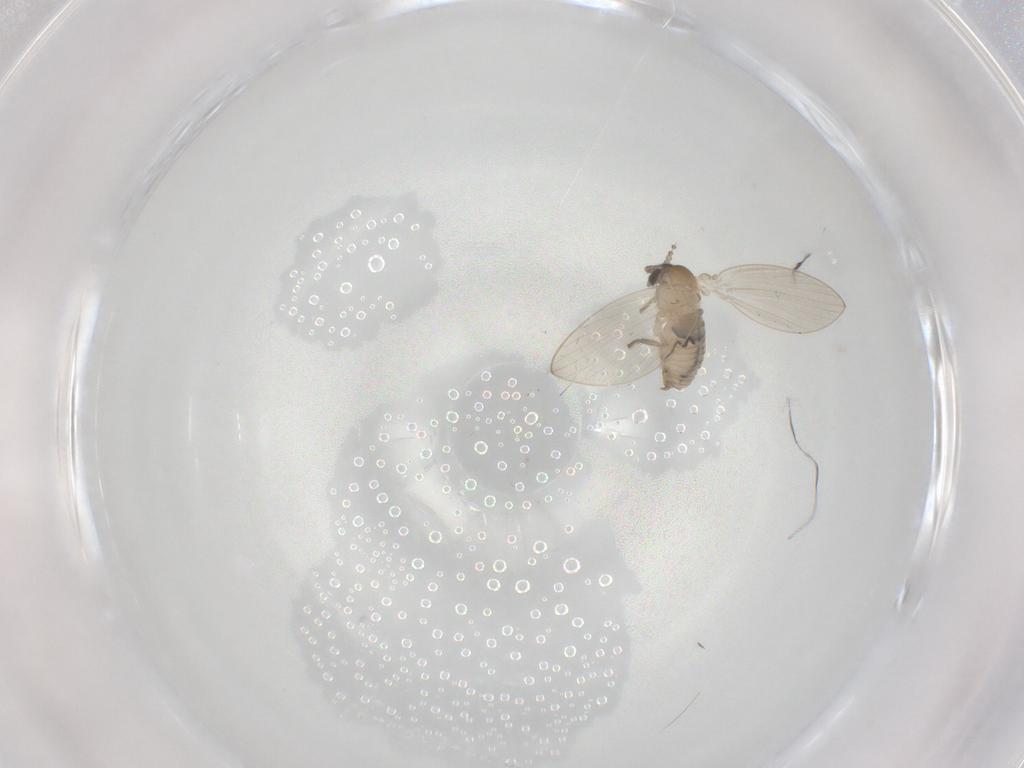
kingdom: Animalia
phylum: Arthropoda
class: Insecta
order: Diptera
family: Psychodidae
